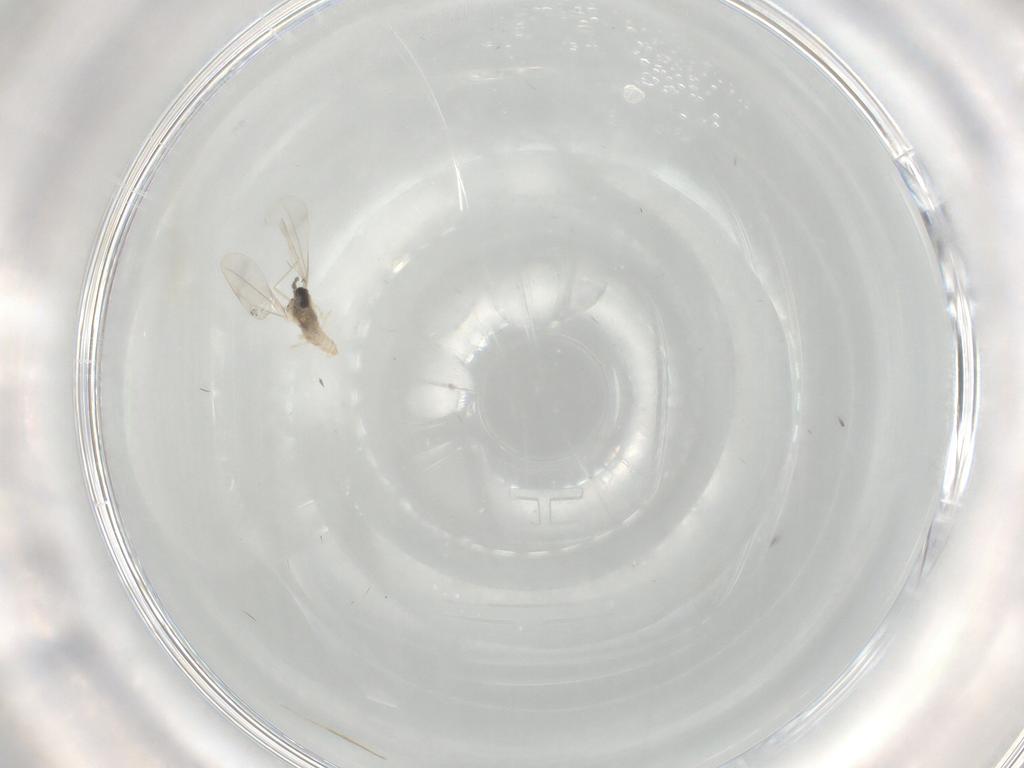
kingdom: Animalia
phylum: Arthropoda
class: Insecta
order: Diptera
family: Sciaridae
